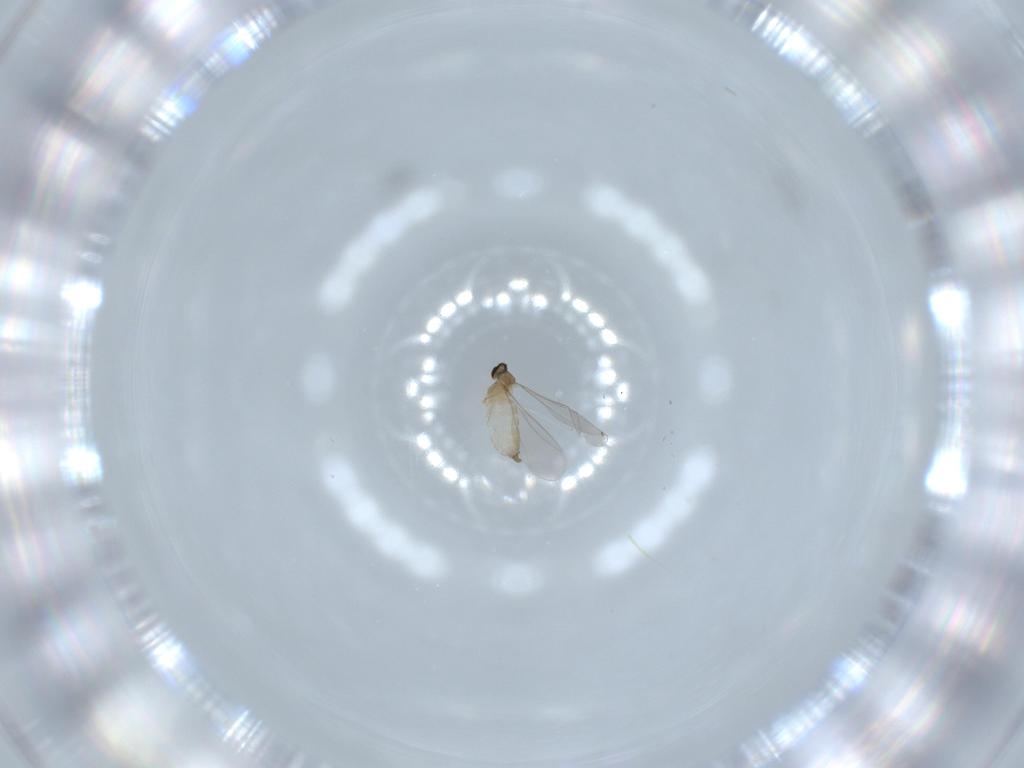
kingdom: Animalia
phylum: Arthropoda
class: Insecta
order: Diptera
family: Cecidomyiidae
